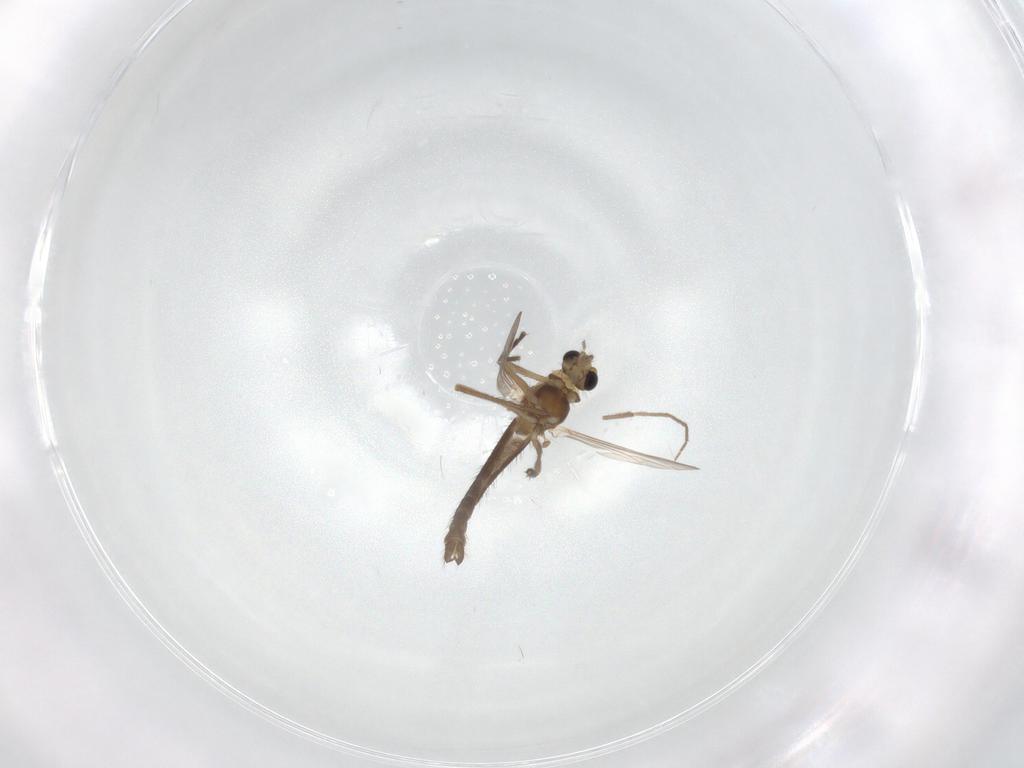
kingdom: Animalia
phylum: Arthropoda
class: Insecta
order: Diptera
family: Chironomidae
